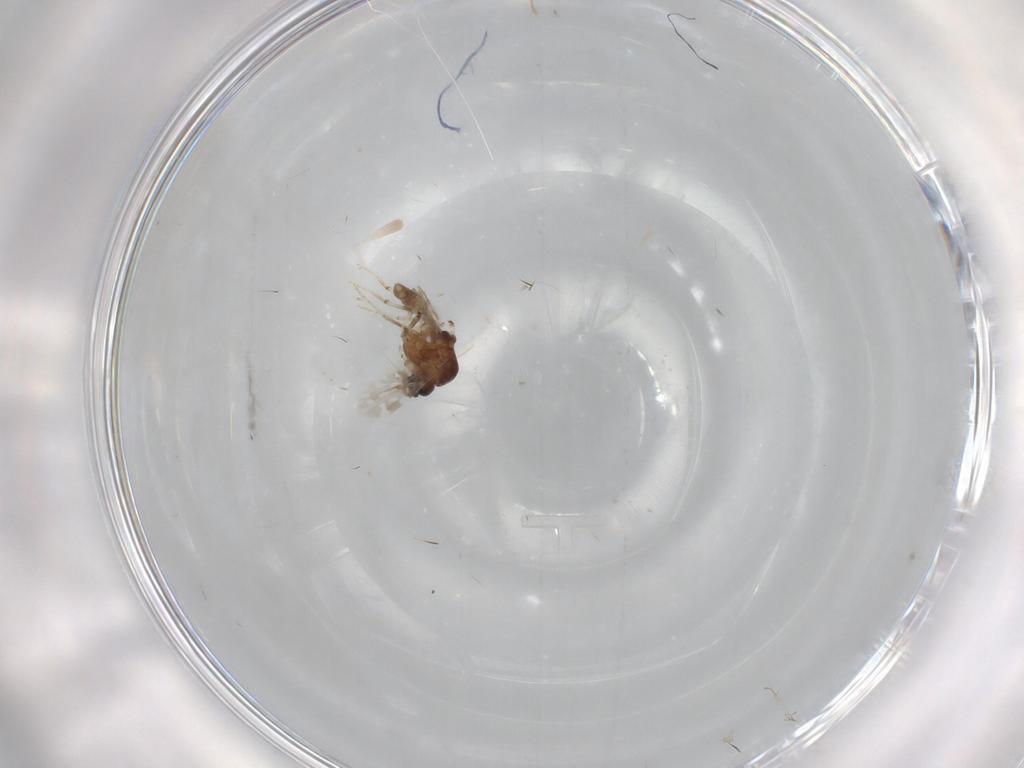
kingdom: Animalia
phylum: Arthropoda
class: Insecta
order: Diptera
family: Ceratopogonidae
